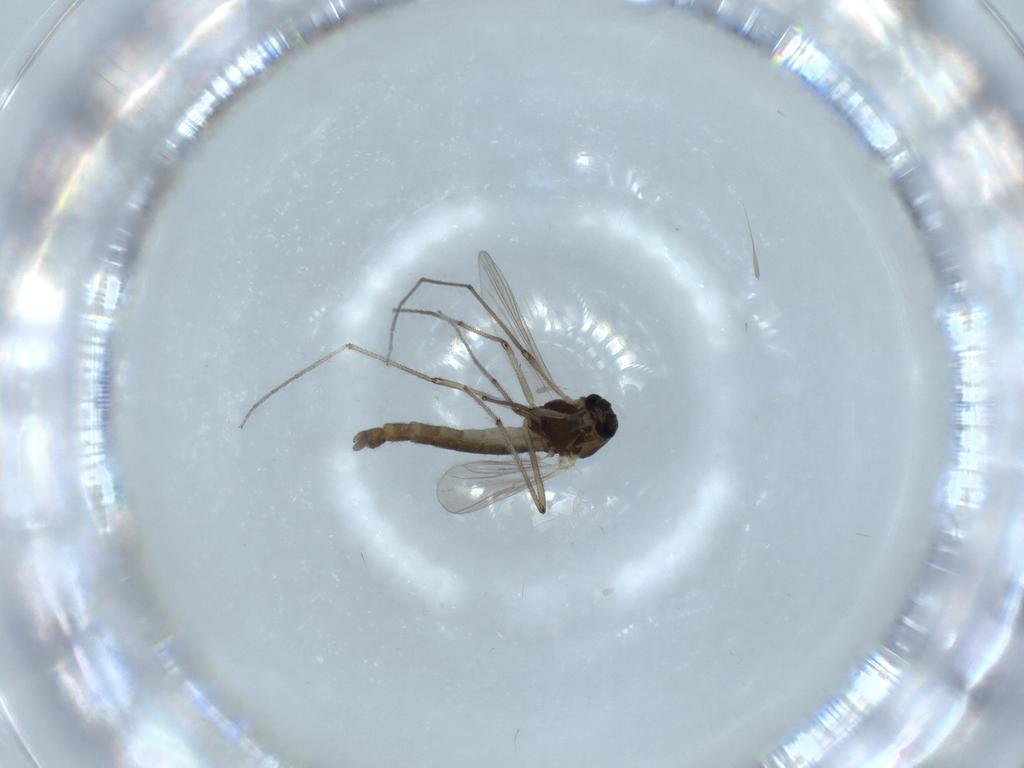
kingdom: Animalia
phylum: Arthropoda
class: Insecta
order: Diptera
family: Chironomidae
